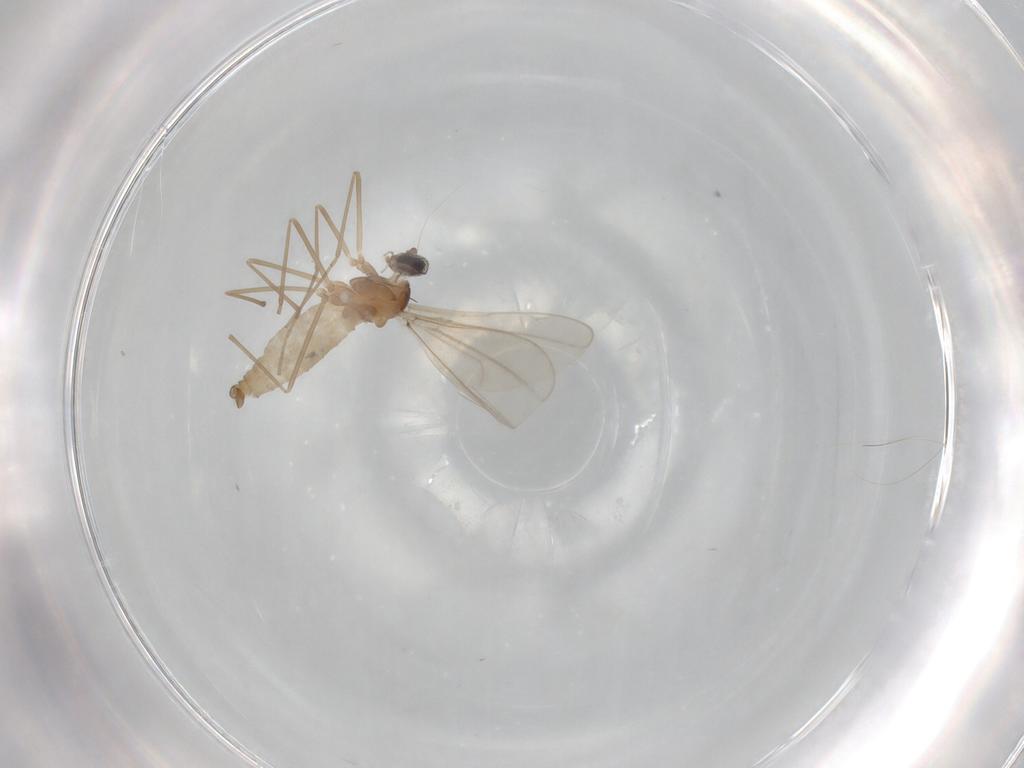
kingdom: Animalia
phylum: Arthropoda
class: Insecta
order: Diptera
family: Cecidomyiidae
